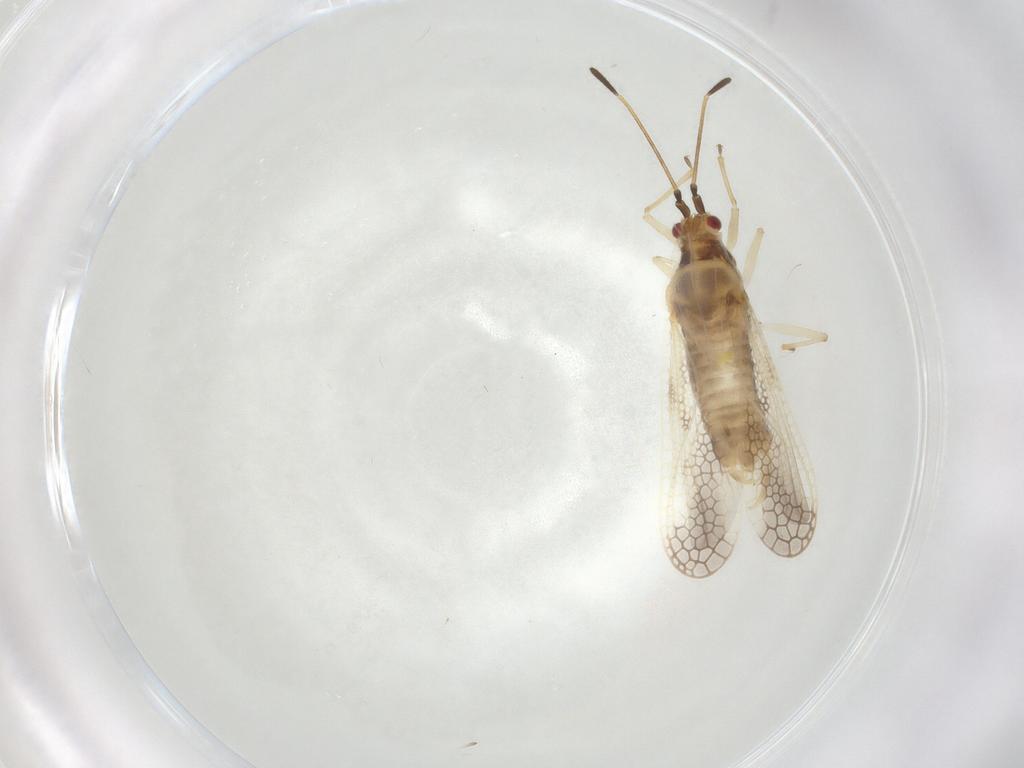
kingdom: Animalia
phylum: Arthropoda
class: Insecta
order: Hemiptera
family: Tingidae
